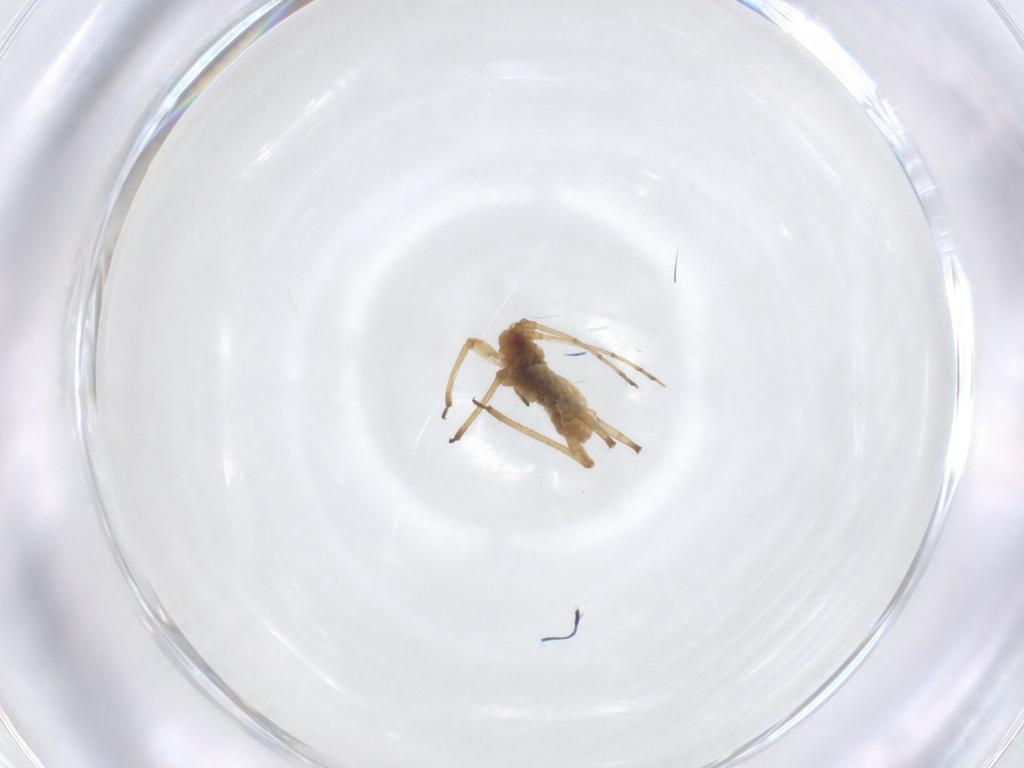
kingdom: Animalia
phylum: Arthropoda
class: Insecta
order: Hemiptera
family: Aphididae
